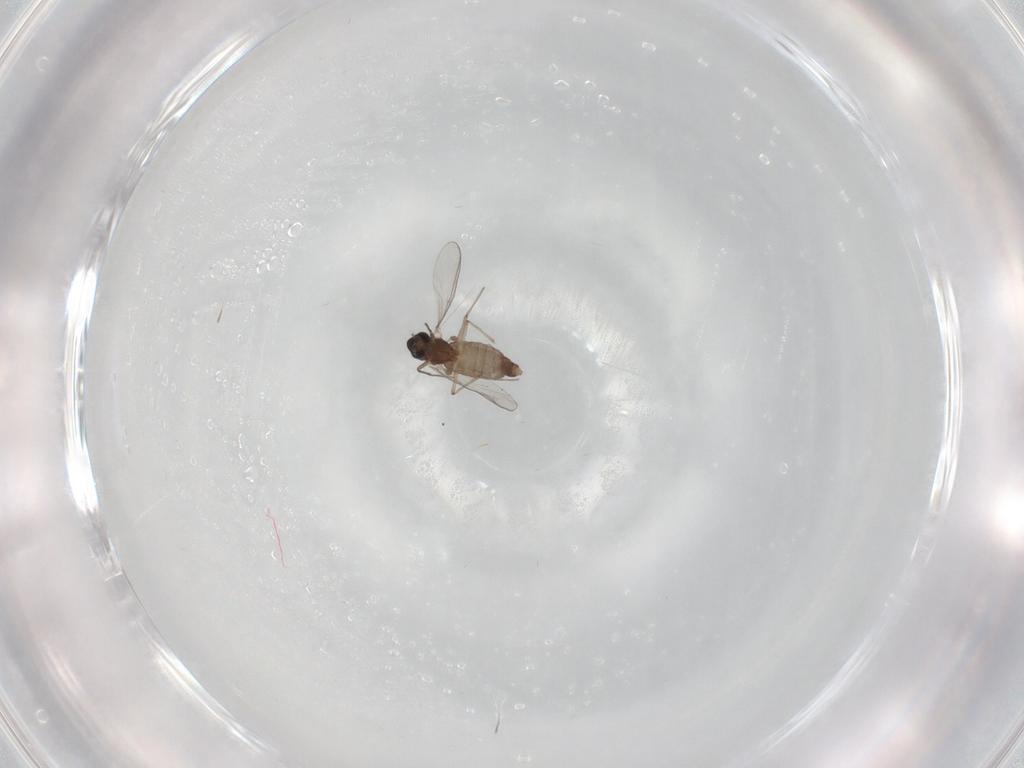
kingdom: Animalia
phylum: Arthropoda
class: Insecta
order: Diptera
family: Chironomidae
